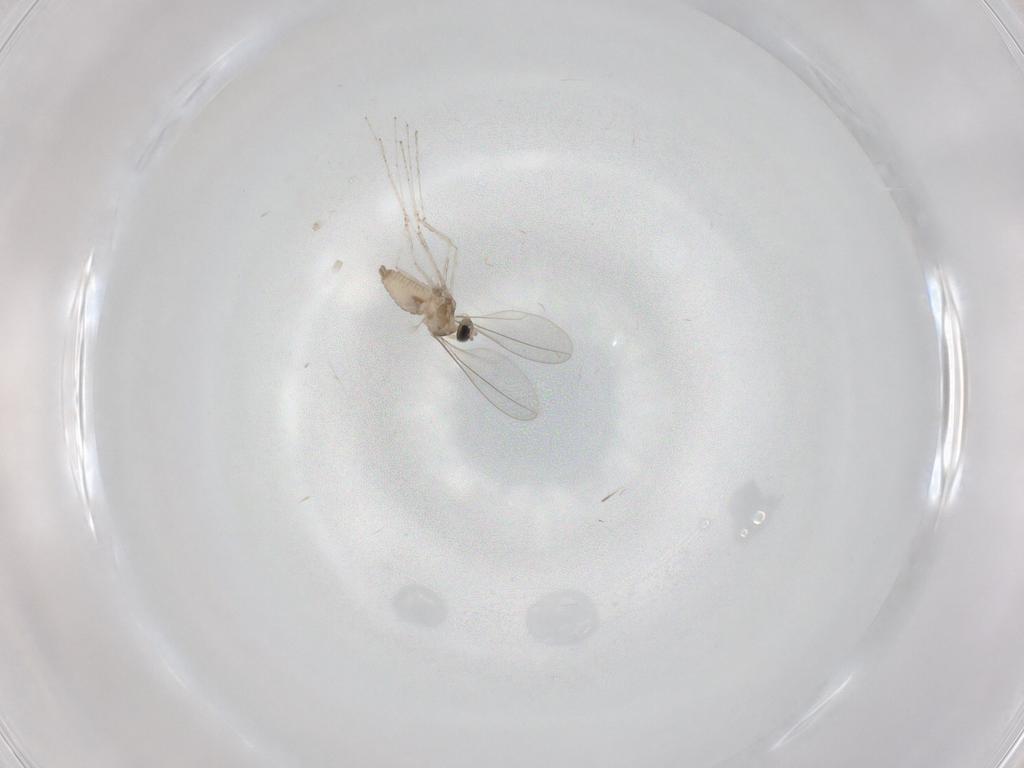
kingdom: Animalia
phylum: Arthropoda
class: Insecta
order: Diptera
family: Cecidomyiidae
